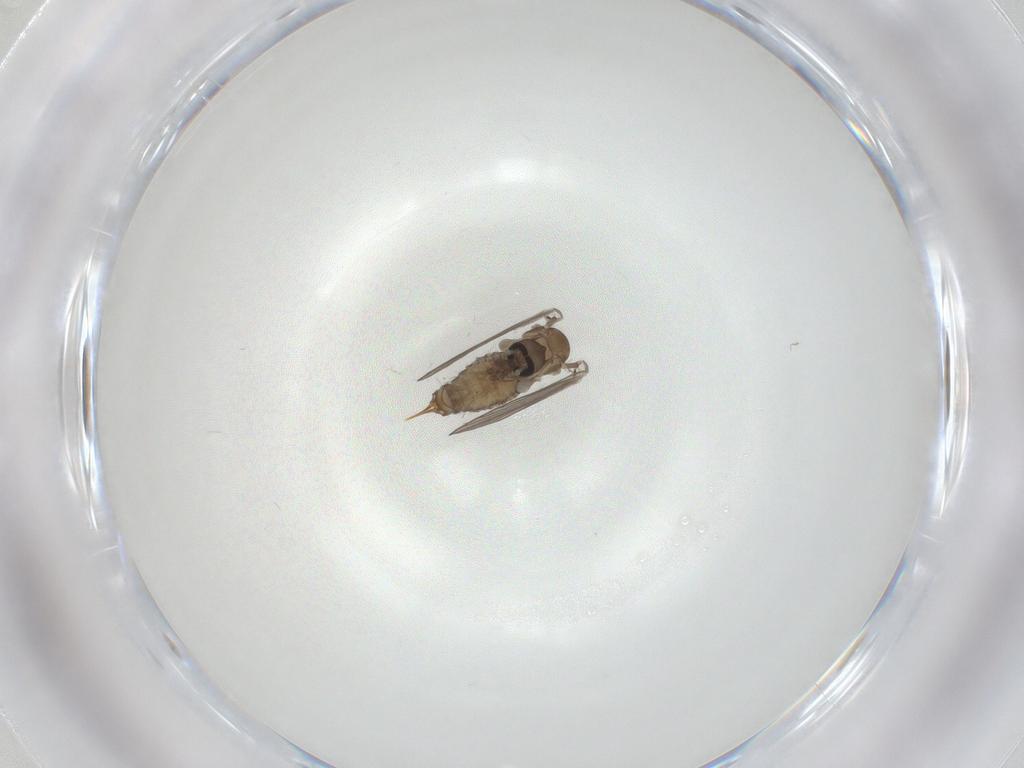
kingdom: Animalia
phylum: Arthropoda
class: Insecta
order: Diptera
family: Psychodidae
